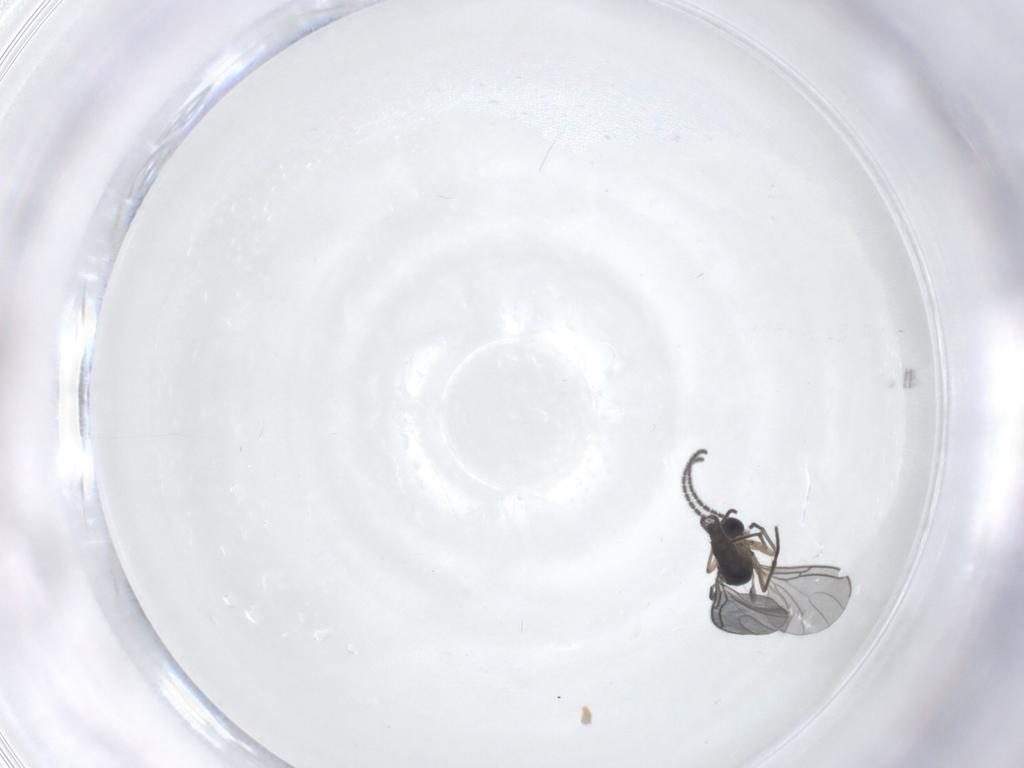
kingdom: Animalia
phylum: Arthropoda
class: Insecta
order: Diptera
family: Sciaridae
